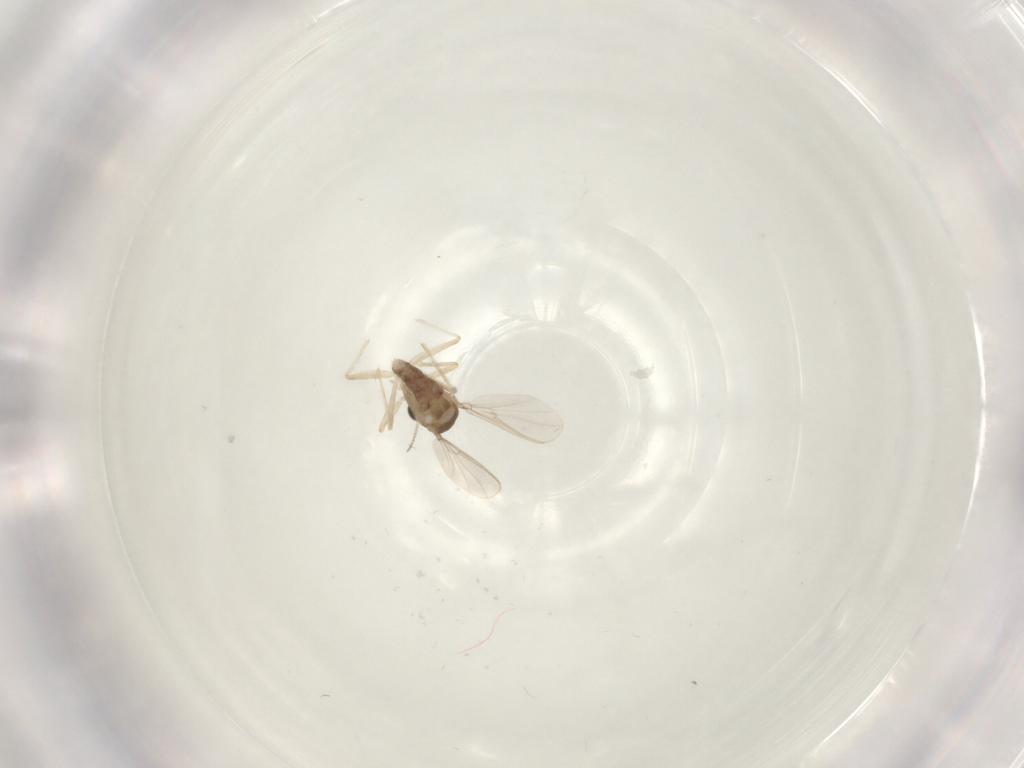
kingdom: Animalia
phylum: Arthropoda
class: Insecta
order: Diptera
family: Chironomidae
